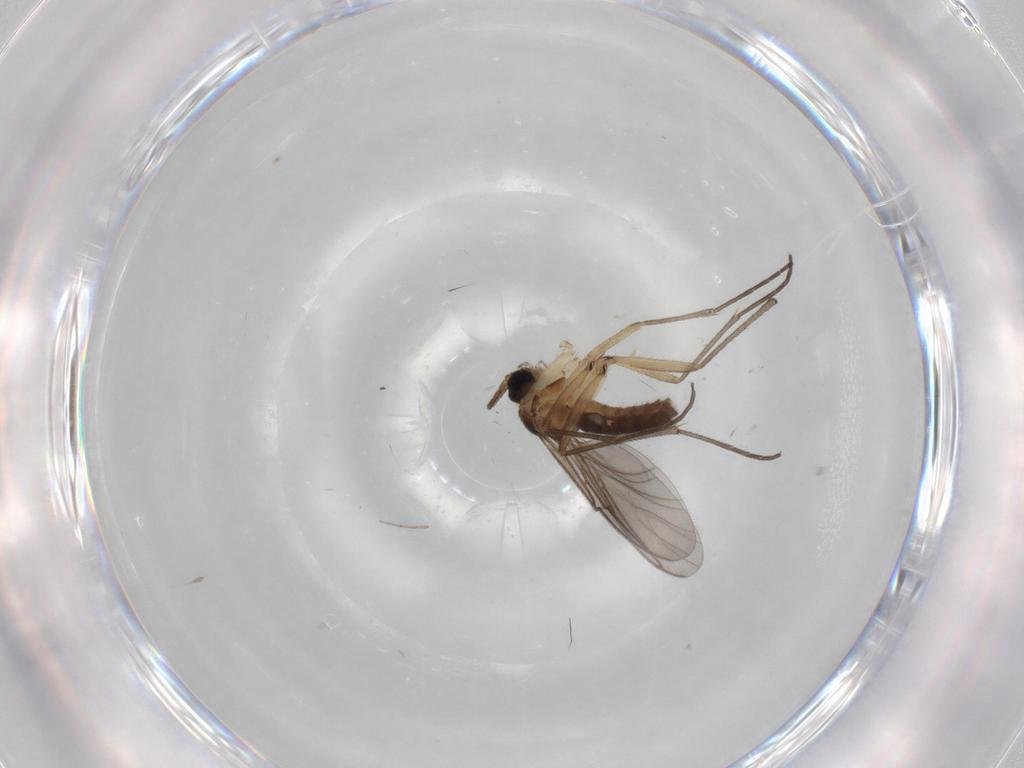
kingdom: Animalia
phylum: Arthropoda
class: Insecta
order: Diptera
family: Sciaridae
